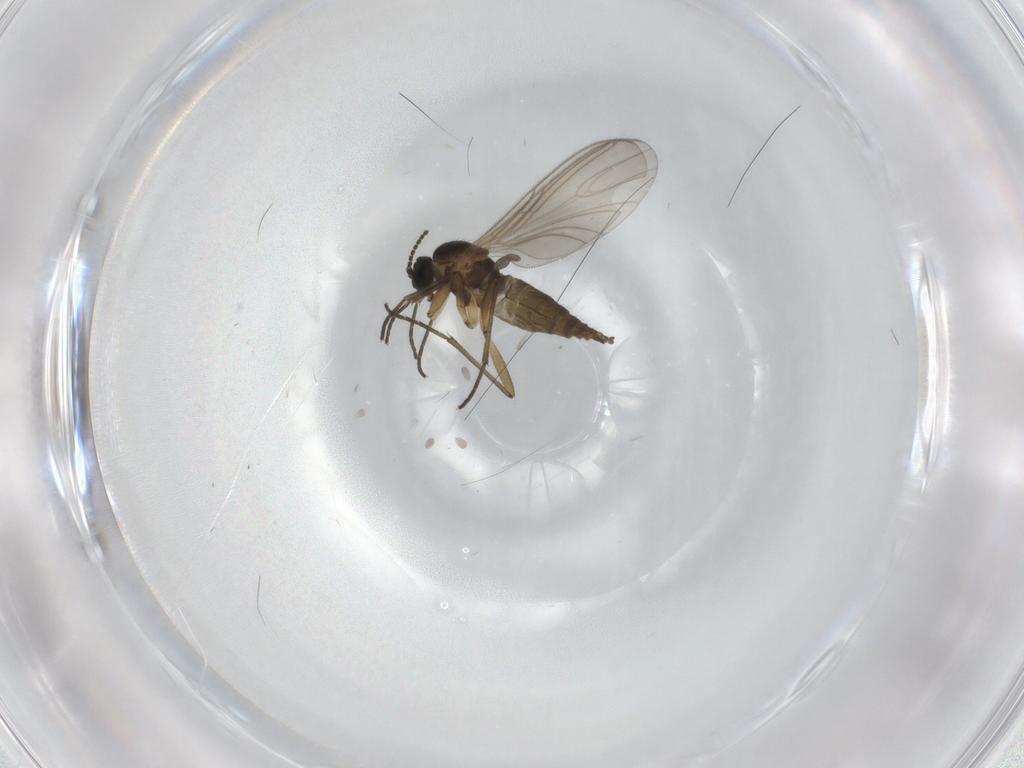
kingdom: Animalia
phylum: Arthropoda
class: Insecta
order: Diptera
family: Sciaridae
